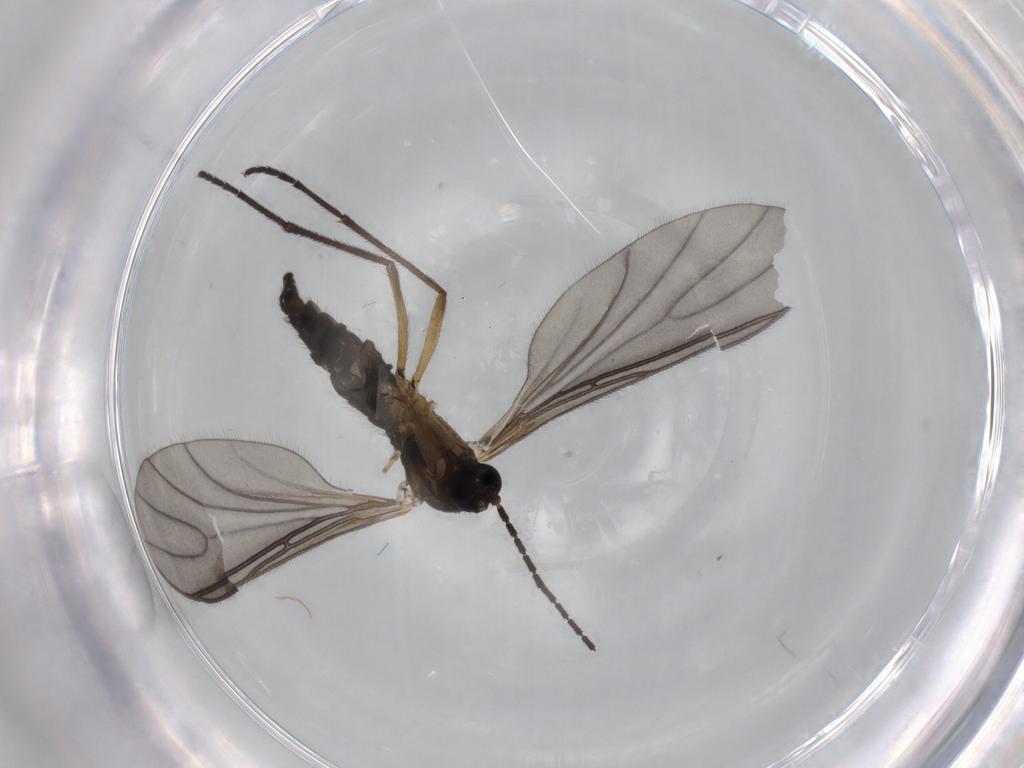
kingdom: Animalia
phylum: Arthropoda
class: Insecta
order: Diptera
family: Sciaridae
